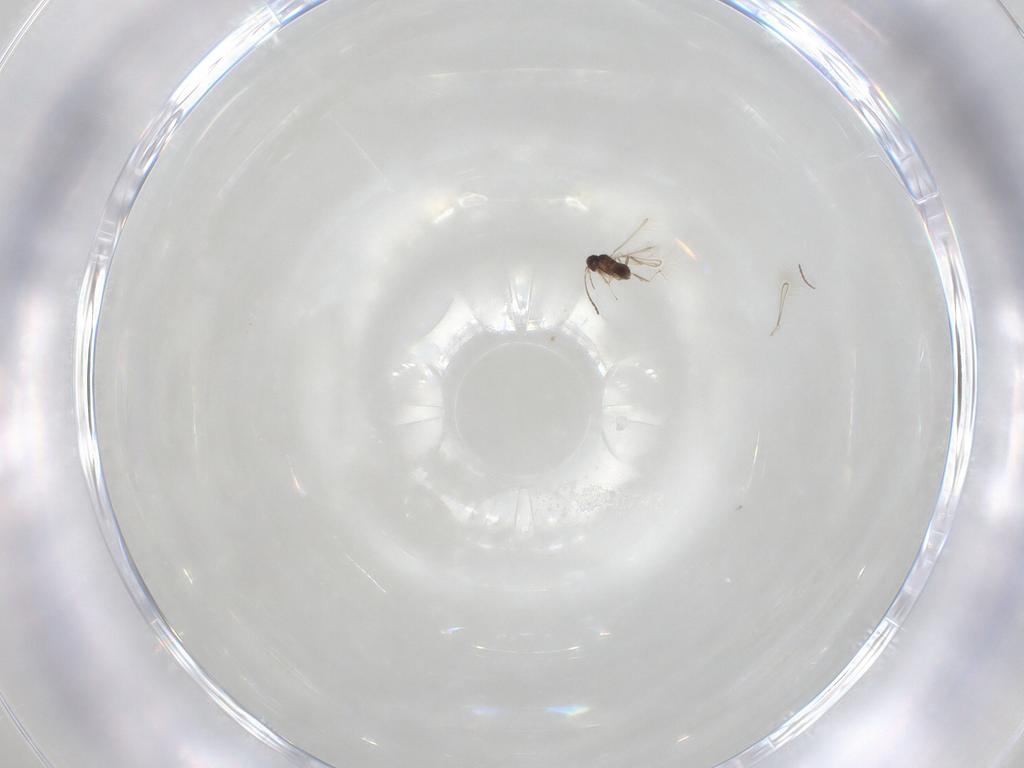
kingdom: Animalia
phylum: Arthropoda
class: Insecta
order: Hymenoptera
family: Mymaridae
